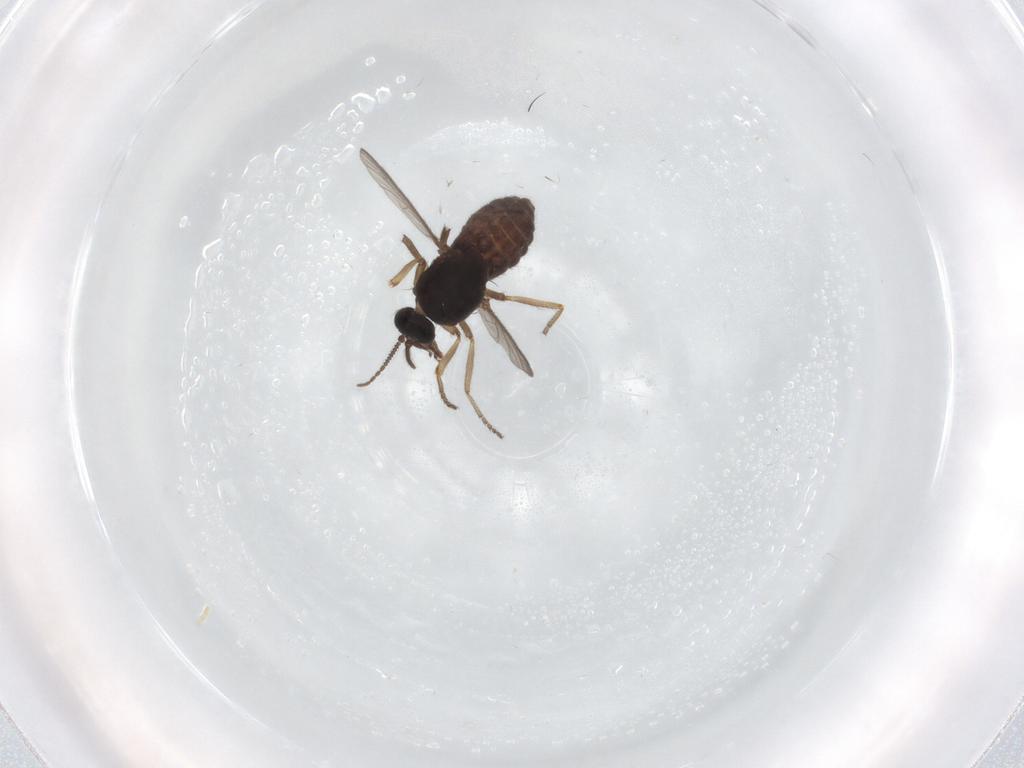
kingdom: Animalia
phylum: Arthropoda
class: Insecta
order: Diptera
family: Ceratopogonidae
